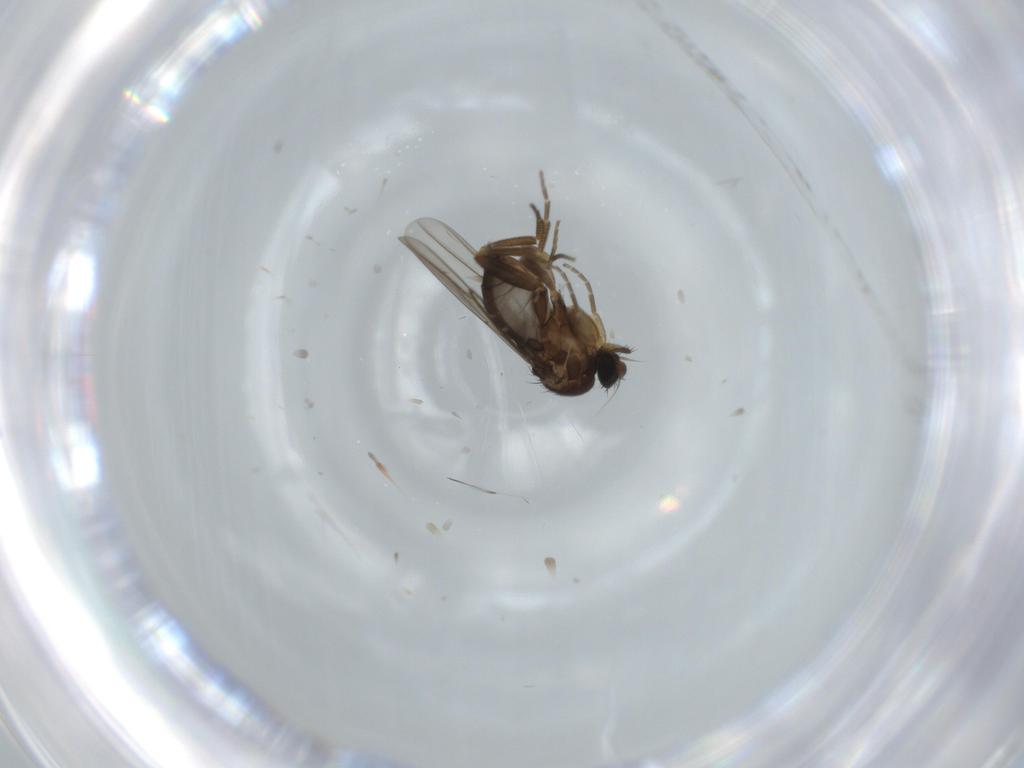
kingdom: Animalia
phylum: Arthropoda
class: Insecta
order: Diptera
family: Phoridae
